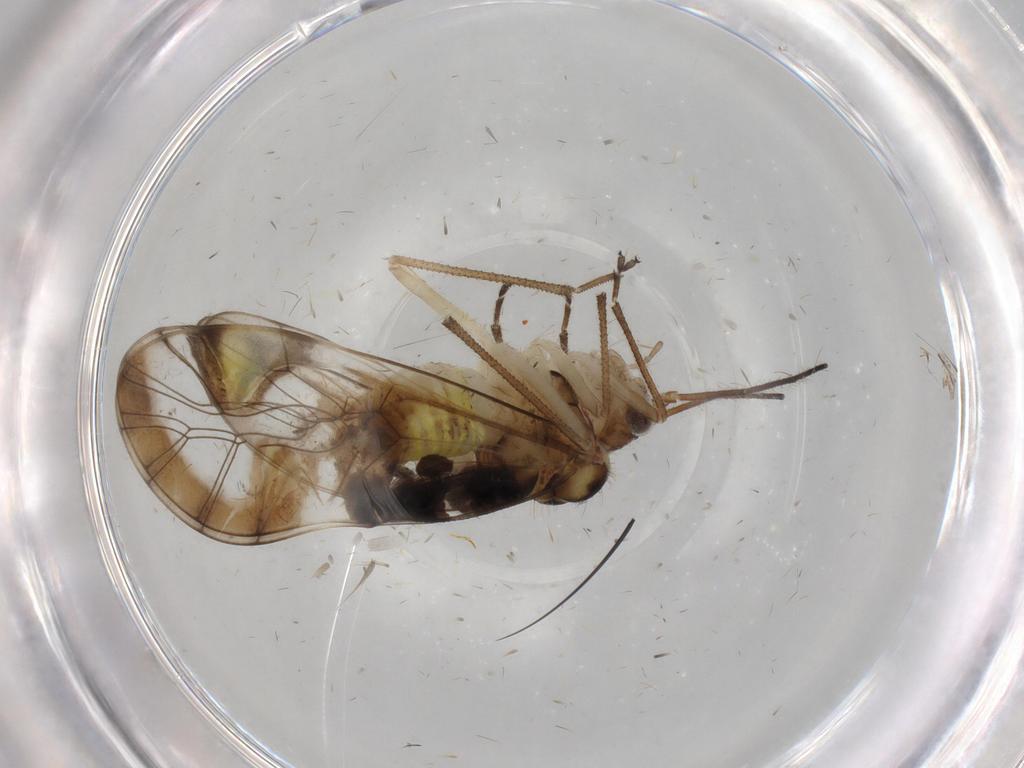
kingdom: Animalia
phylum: Arthropoda
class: Insecta
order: Psocodea
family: Amphipsocidae
